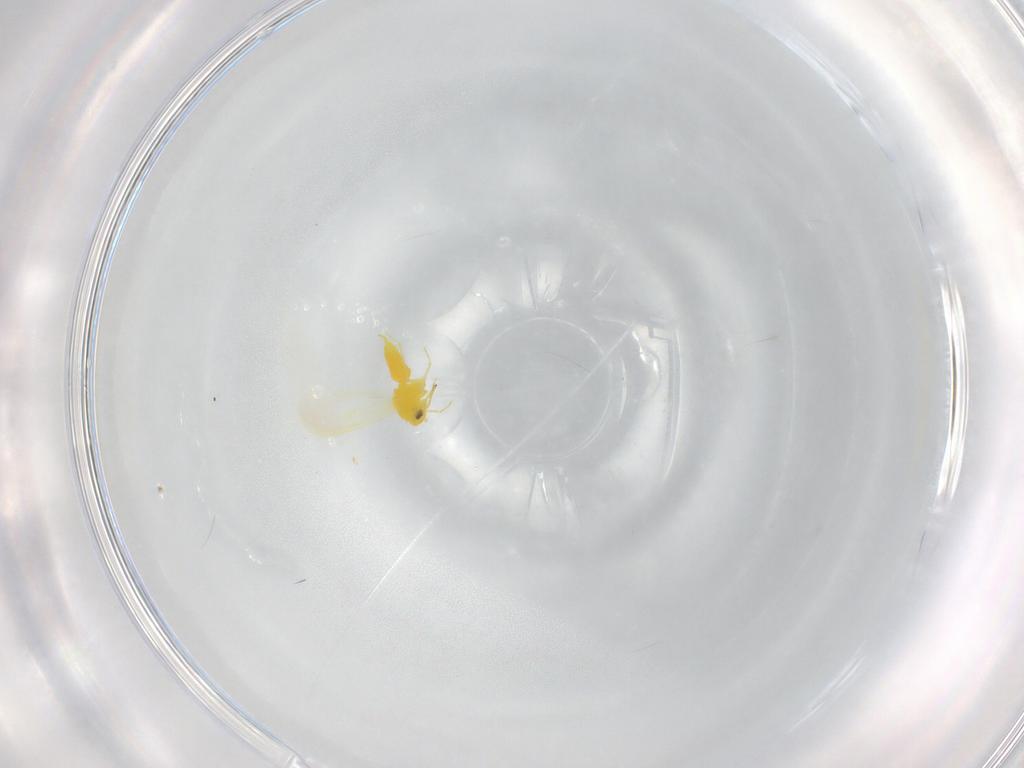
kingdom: Animalia
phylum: Arthropoda
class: Insecta
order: Hemiptera
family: Aleyrodidae
